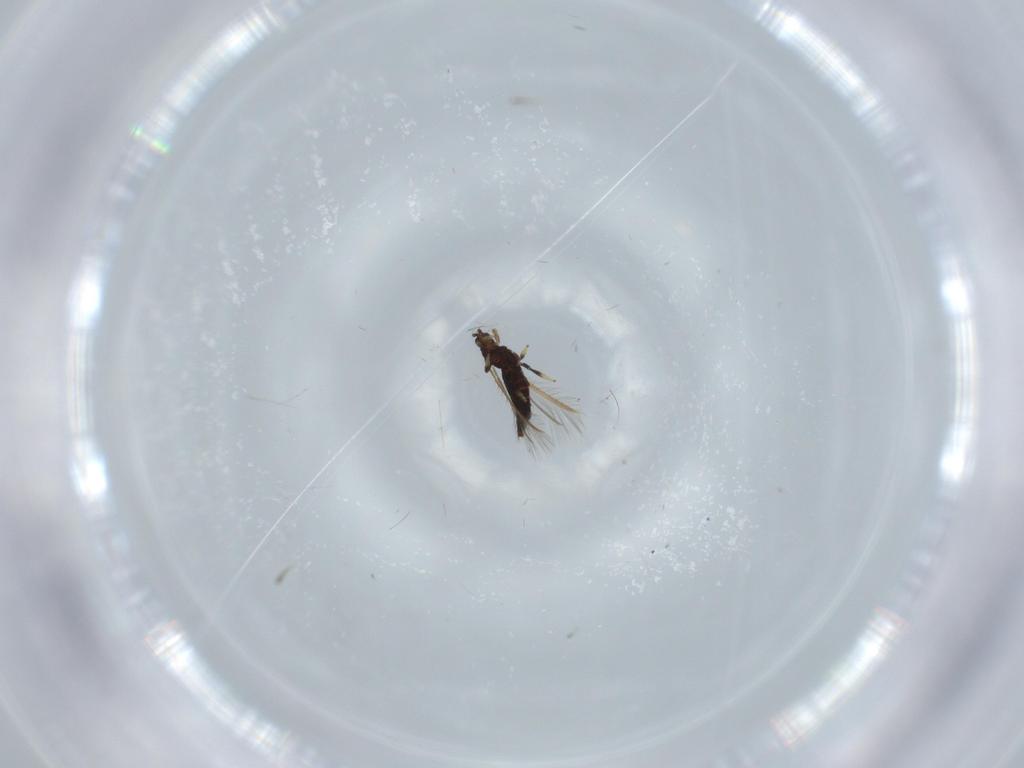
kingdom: Animalia
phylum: Arthropoda
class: Insecta
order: Thysanoptera
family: Thripidae
